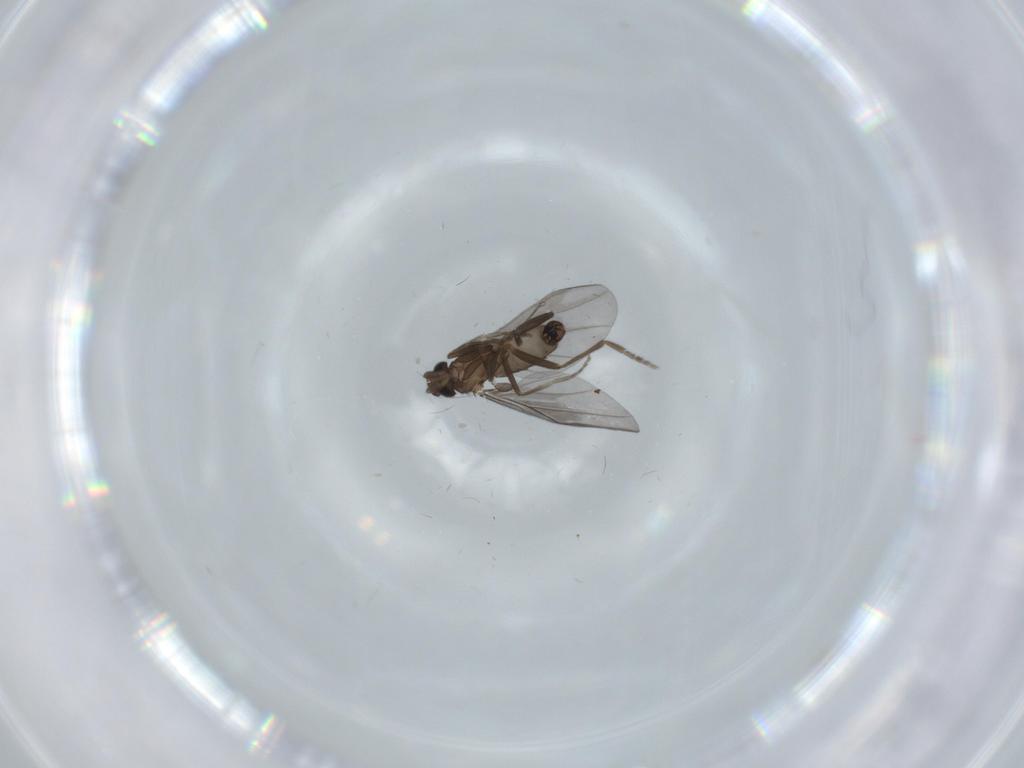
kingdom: Animalia
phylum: Arthropoda
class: Insecta
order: Diptera
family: Phoridae
